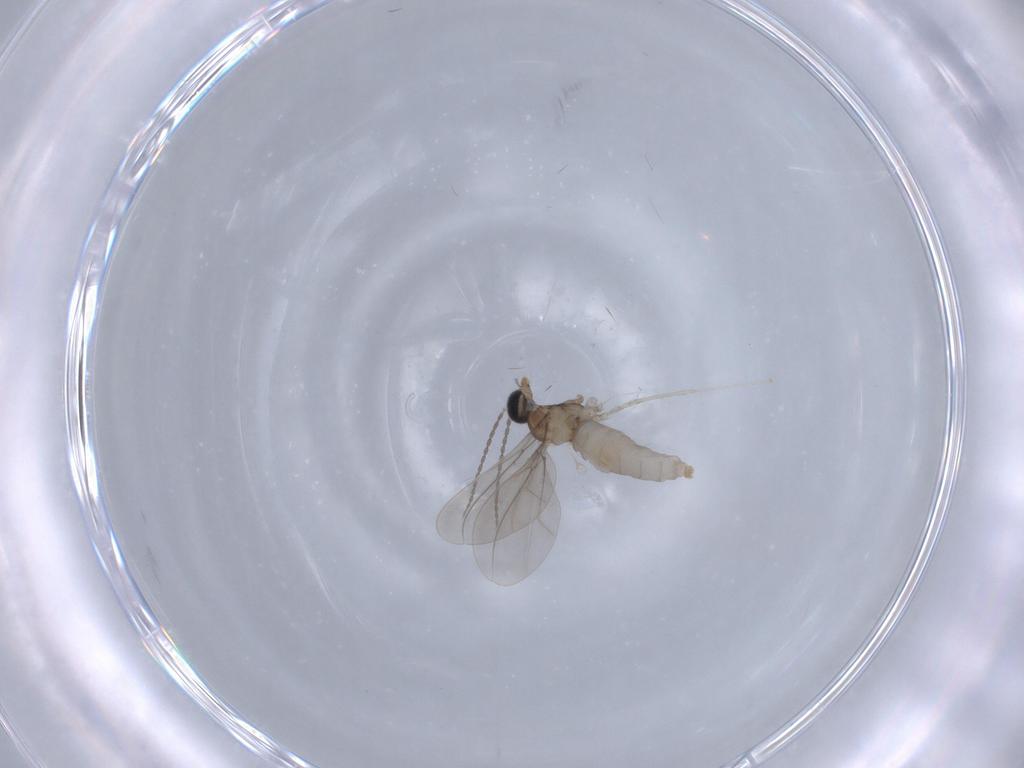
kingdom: Animalia
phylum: Arthropoda
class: Insecta
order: Diptera
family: Cecidomyiidae
